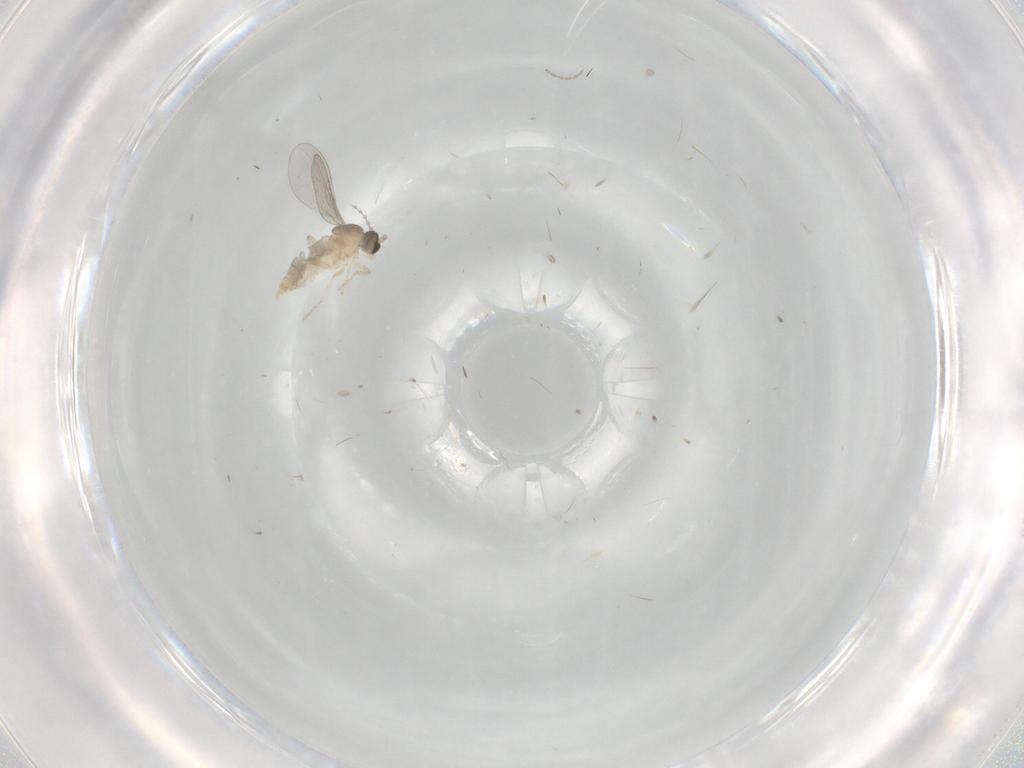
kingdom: Animalia
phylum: Arthropoda
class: Insecta
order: Diptera
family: Cecidomyiidae
